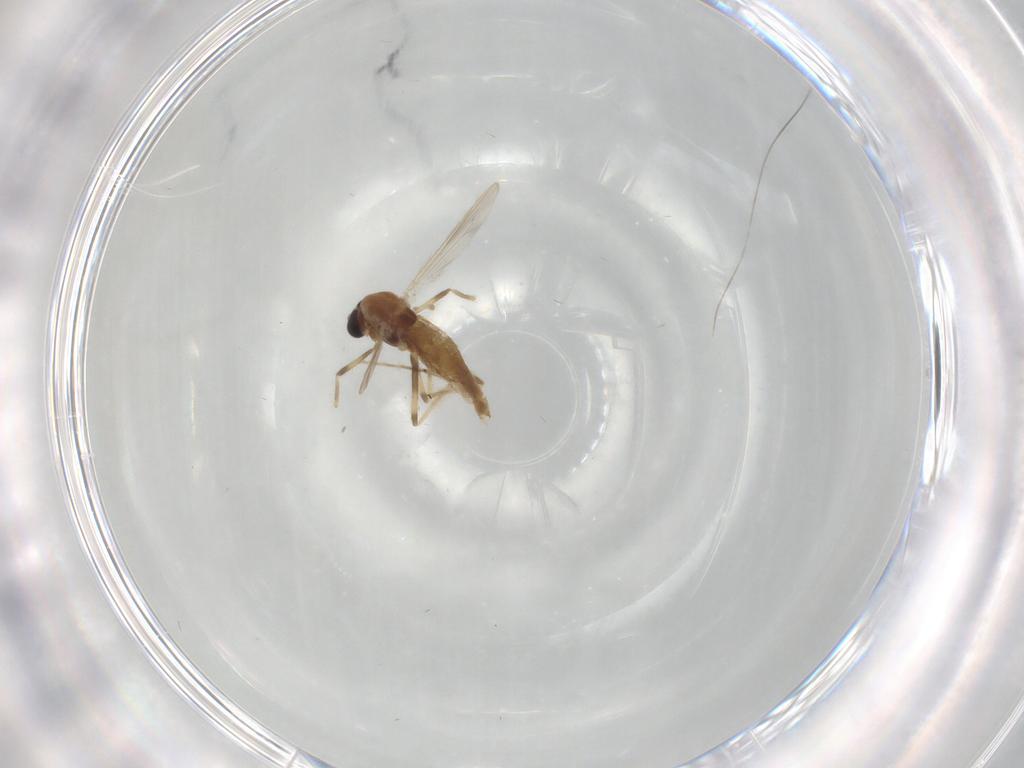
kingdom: Animalia
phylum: Arthropoda
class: Insecta
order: Diptera
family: Chironomidae
